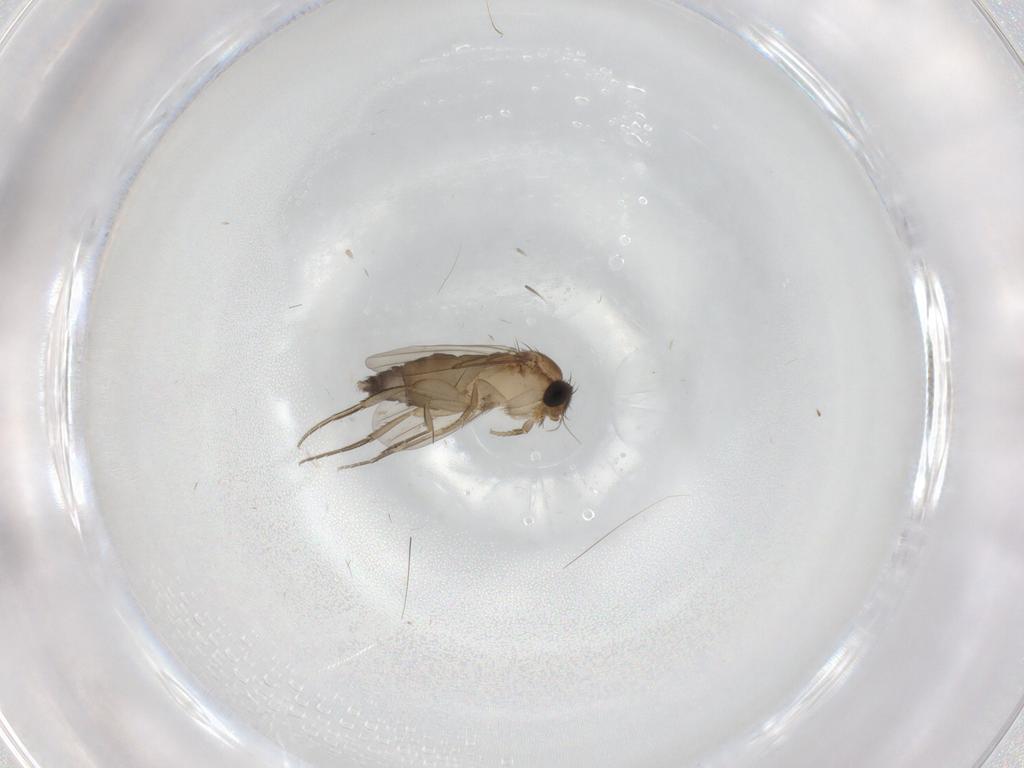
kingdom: Animalia
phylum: Arthropoda
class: Insecta
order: Diptera
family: Phoridae
